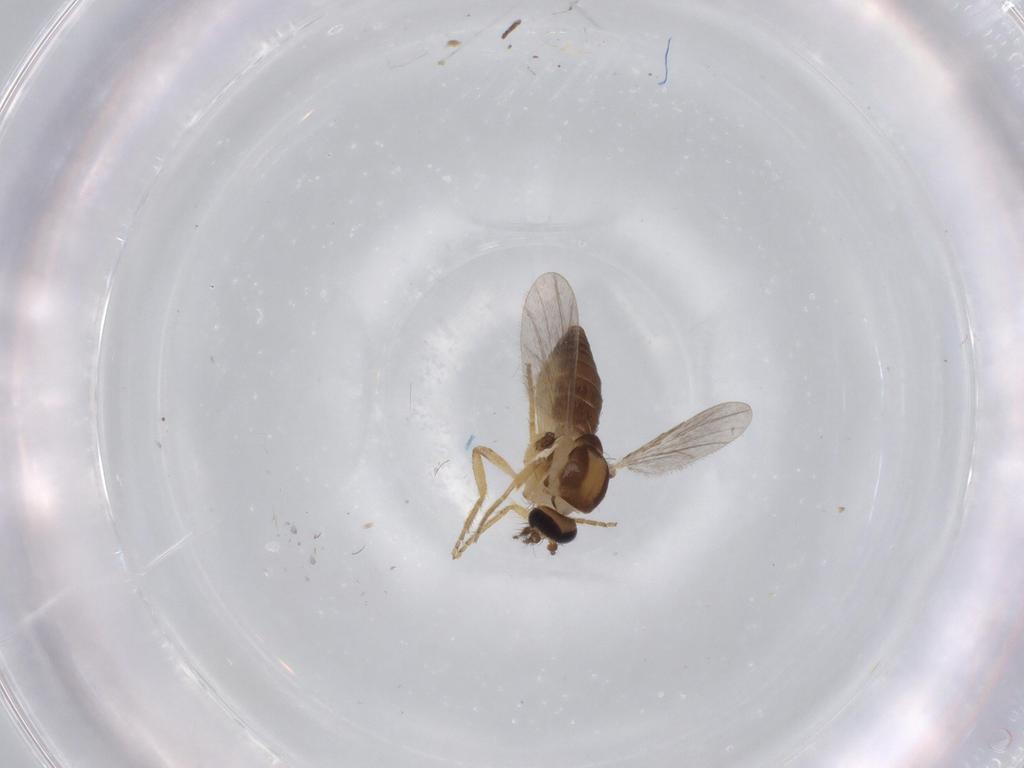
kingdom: Animalia
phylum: Arthropoda
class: Insecta
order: Diptera
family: Ceratopogonidae
